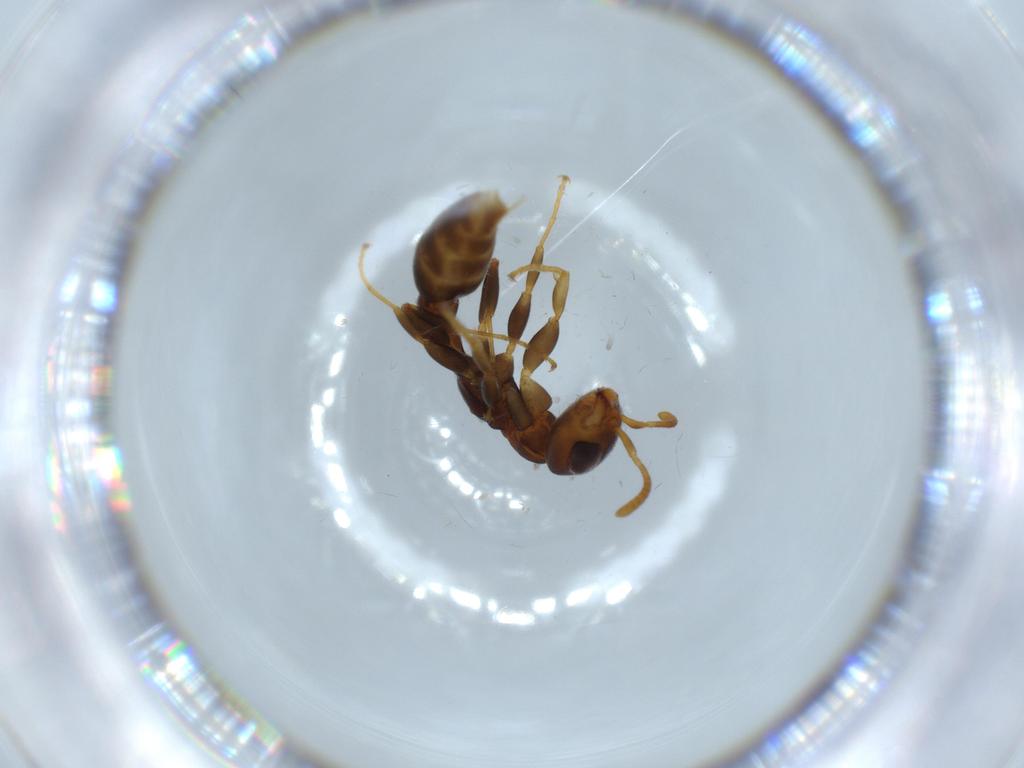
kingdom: Animalia
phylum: Arthropoda
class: Insecta
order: Hymenoptera
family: Formicidae
